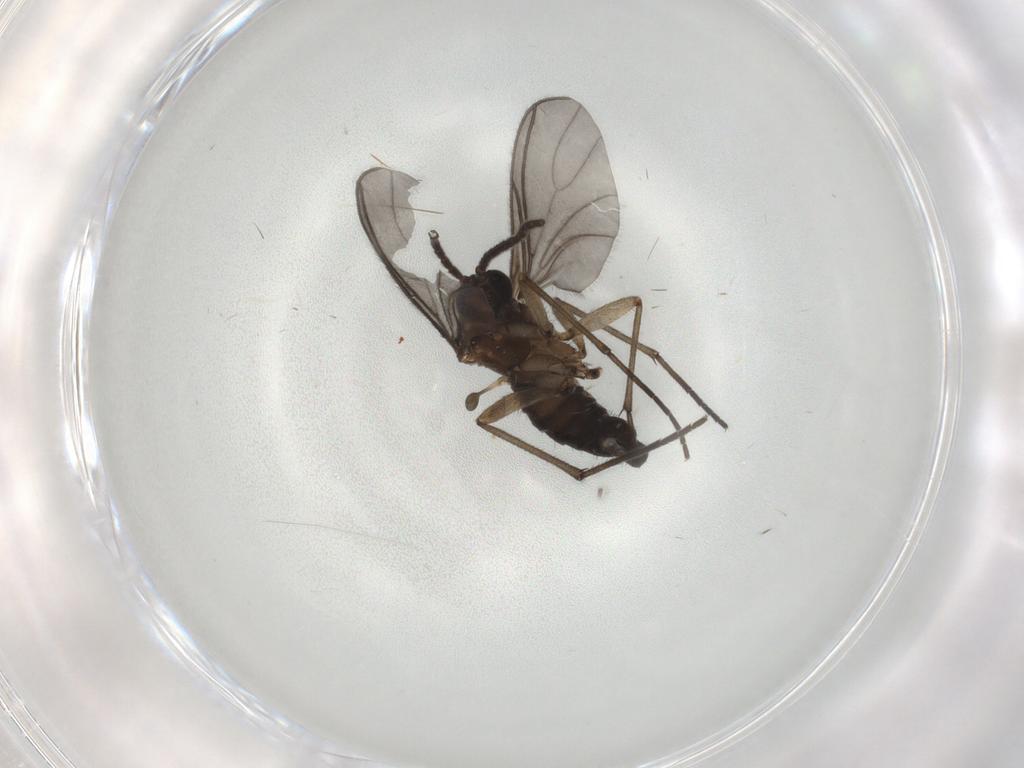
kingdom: Animalia
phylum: Arthropoda
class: Insecta
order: Diptera
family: Sciaridae
